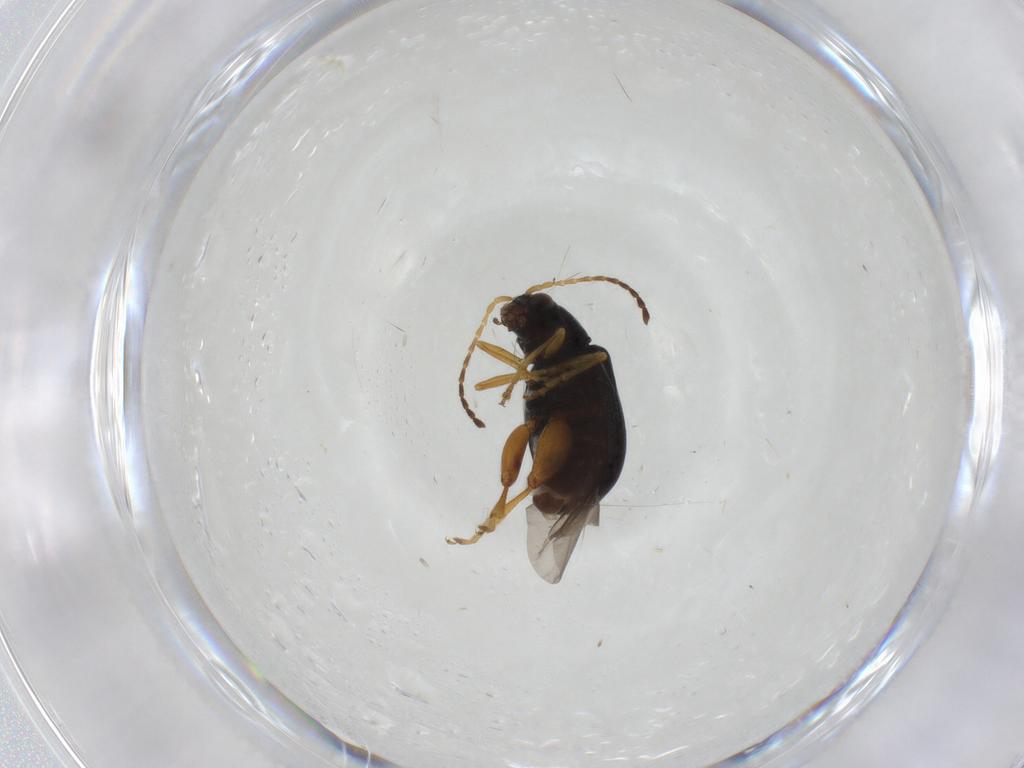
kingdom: Animalia
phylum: Arthropoda
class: Insecta
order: Coleoptera
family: Chrysomelidae
